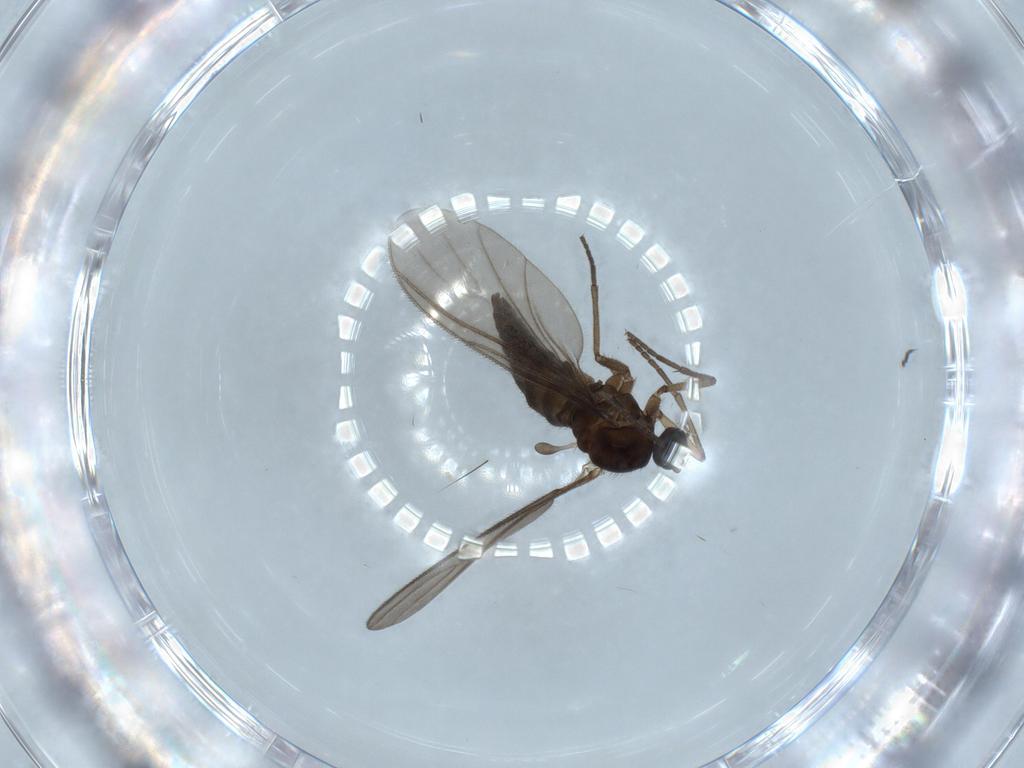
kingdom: Animalia
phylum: Arthropoda
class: Insecta
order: Diptera
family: Sciaridae
